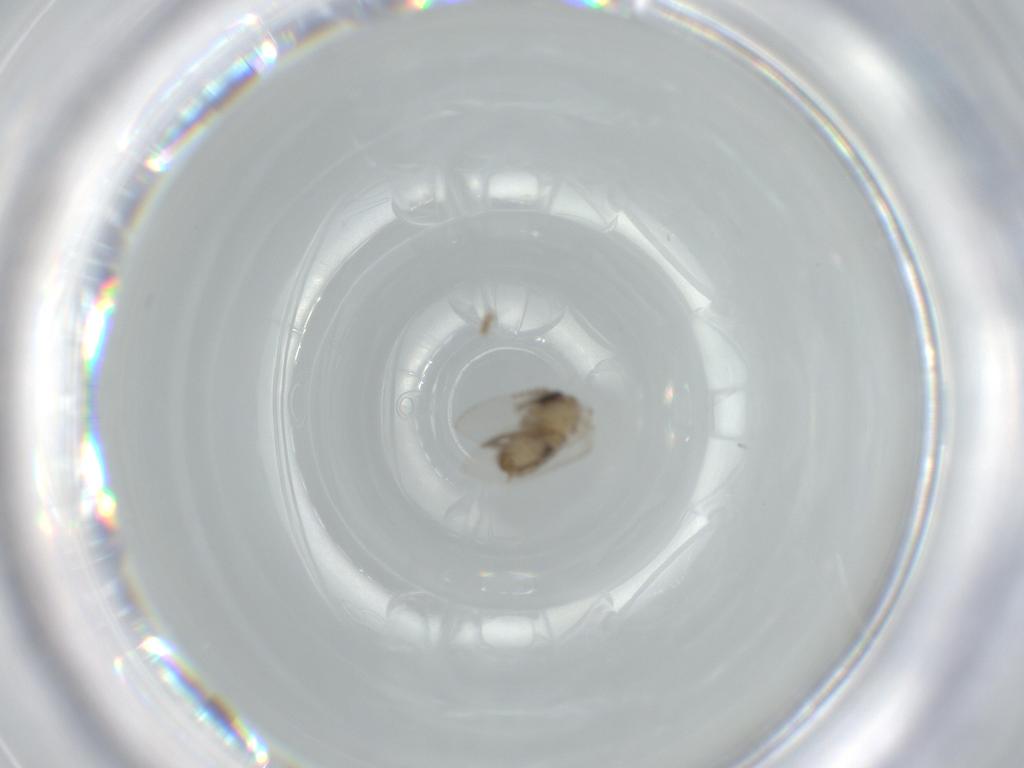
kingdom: Animalia
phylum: Arthropoda
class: Insecta
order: Diptera
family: Psychodidae
